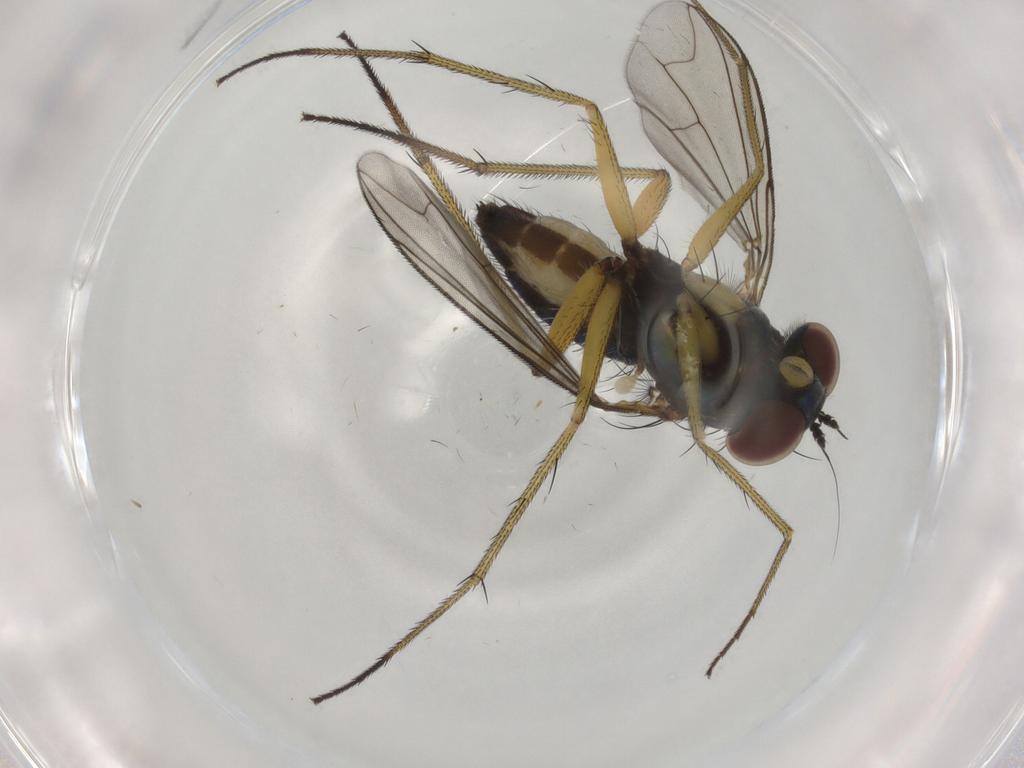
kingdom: Animalia
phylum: Arthropoda
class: Insecta
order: Diptera
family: Dolichopodidae
